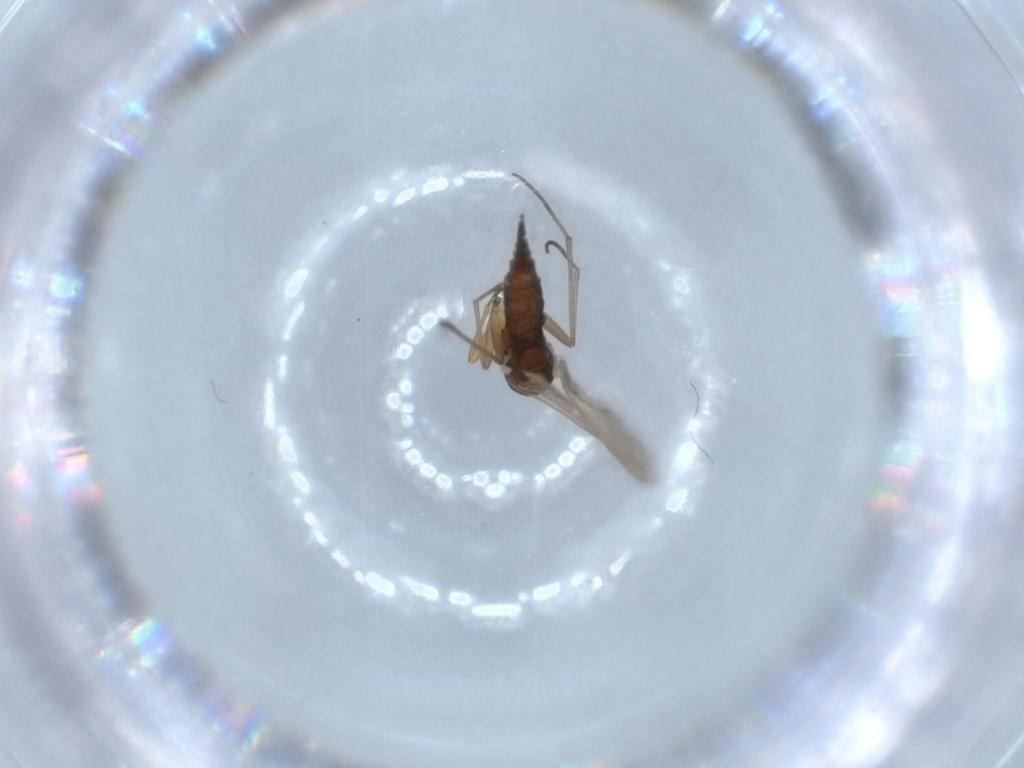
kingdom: Animalia
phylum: Arthropoda
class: Insecta
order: Diptera
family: Sciaridae
